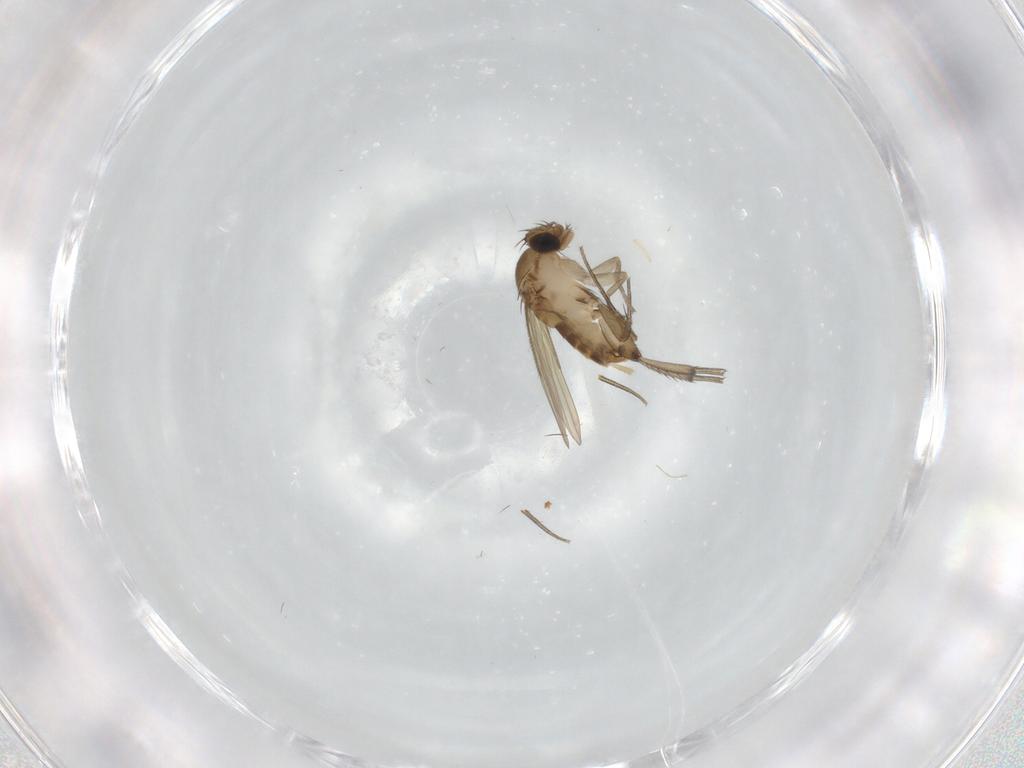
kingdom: Animalia
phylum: Arthropoda
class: Insecta
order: Diptera
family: Phoridae
